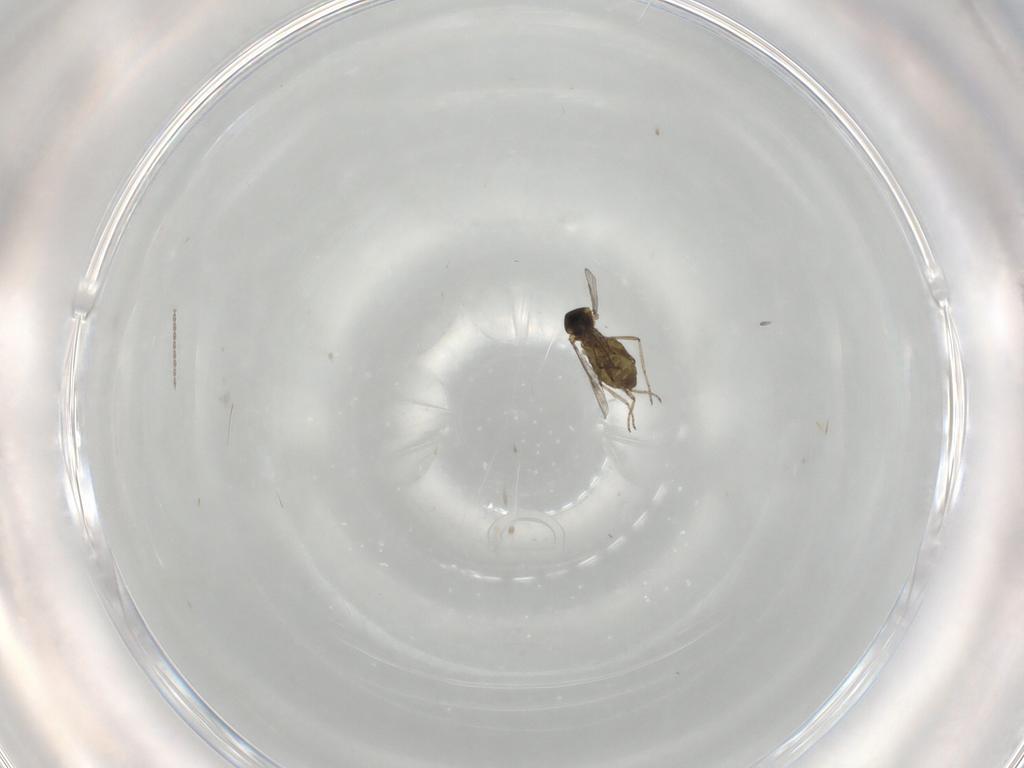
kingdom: Animalia
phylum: Arthropoda
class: Insecta
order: Diptera
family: Cecidomyiidae
